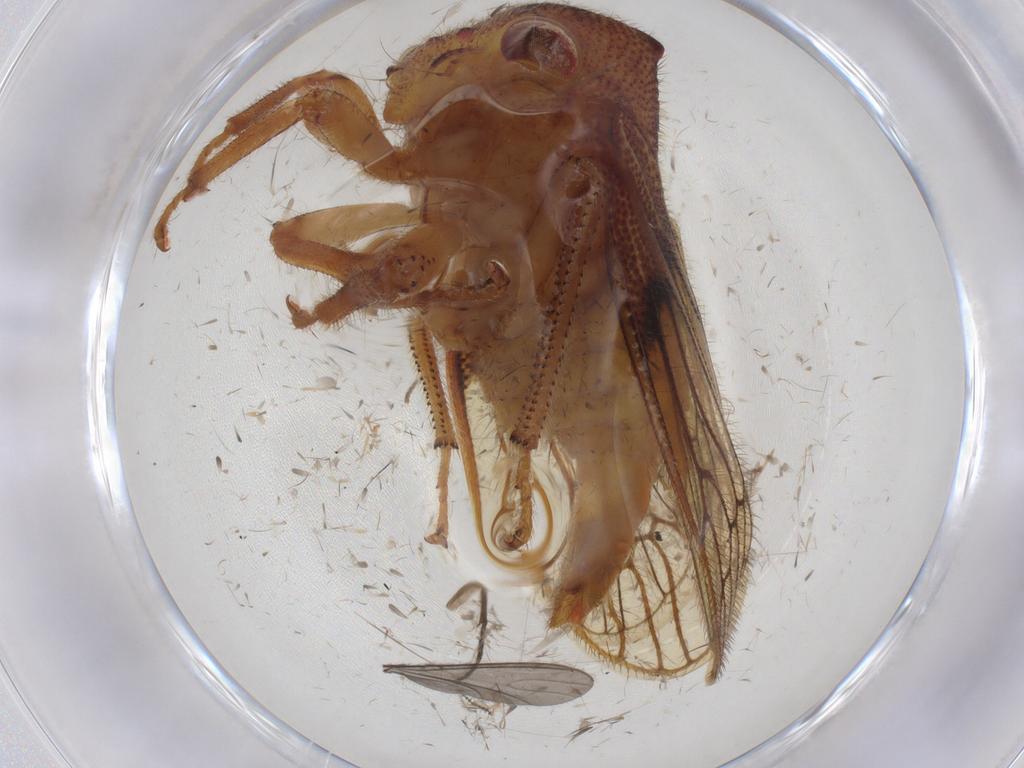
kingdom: Animalia
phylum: Arthropoda
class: Insecta
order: Hemiptera
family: Membracidae
